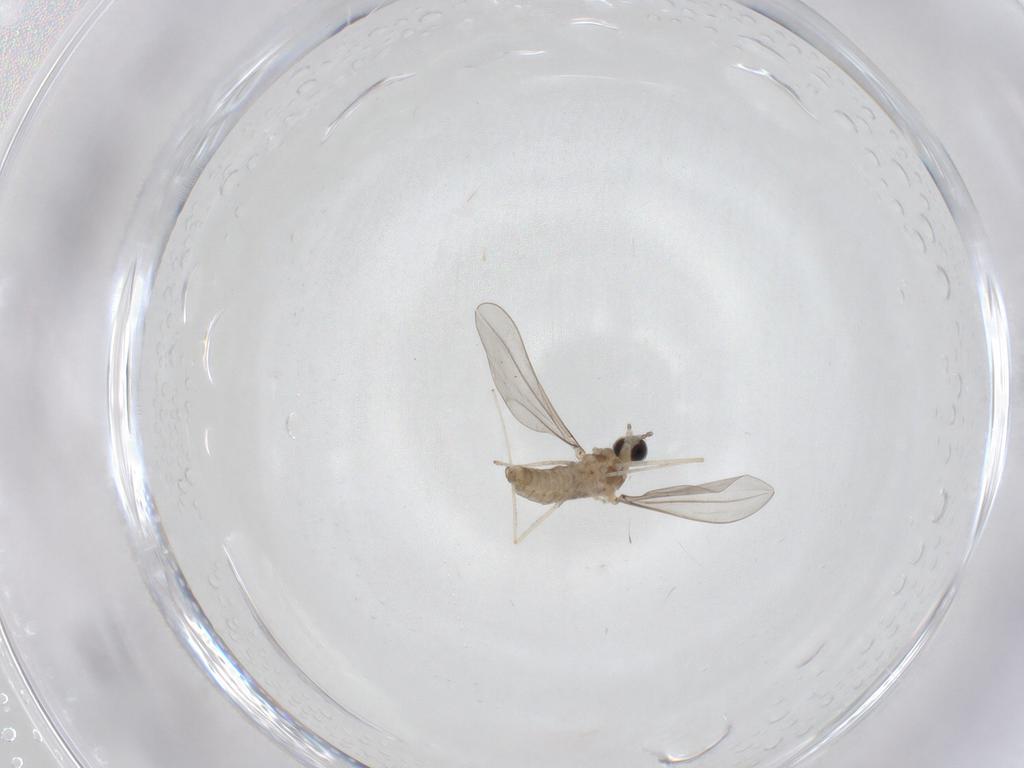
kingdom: Animalia
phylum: Arthropoda
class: Insecta
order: Diptera
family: Cecidomyiidae
